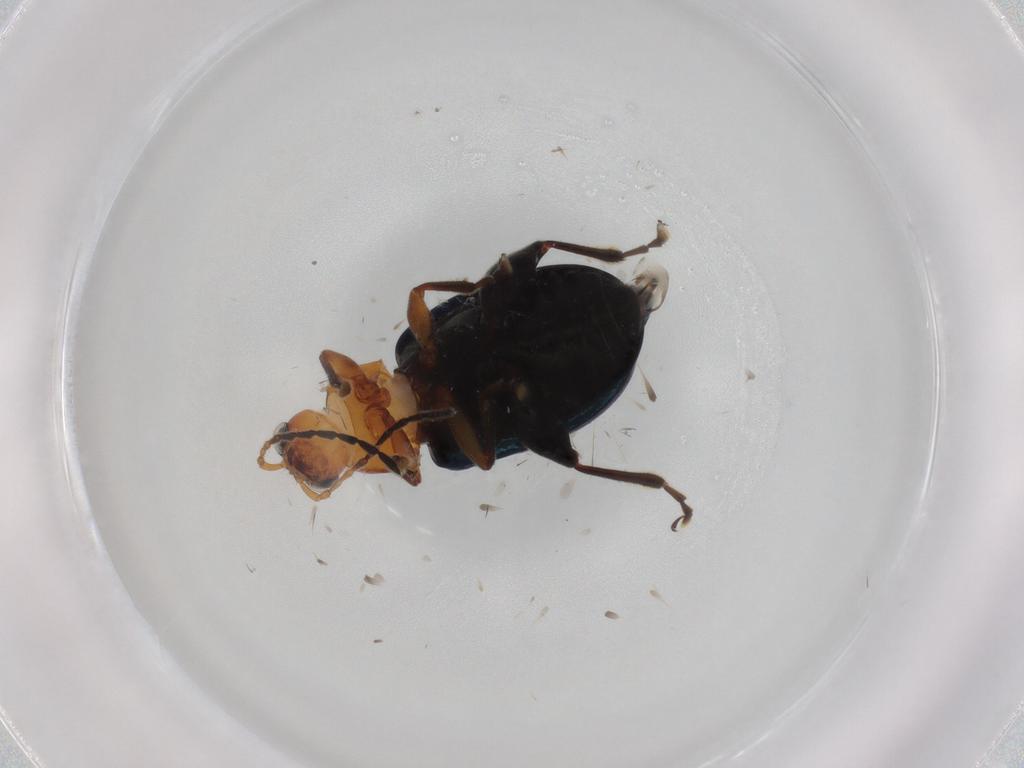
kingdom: Animalia
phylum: Arthropoda
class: Insecta
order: Coleoptera
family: Chrysomelidae
